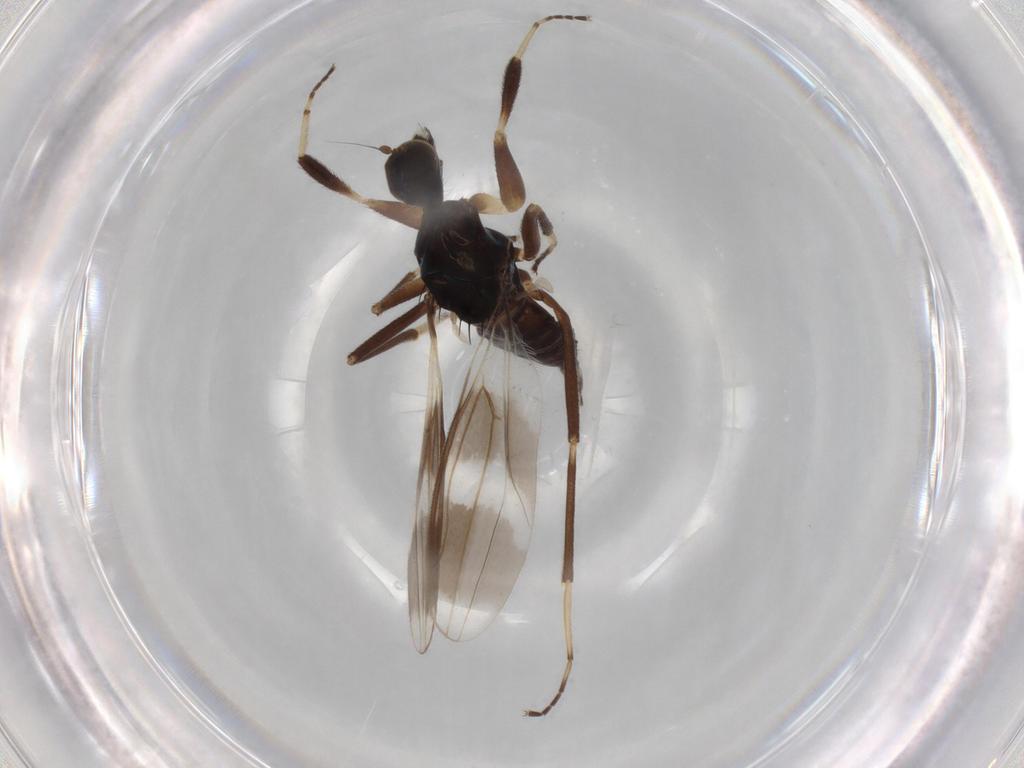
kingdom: Animalia
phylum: Arthropoda
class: Insecta
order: Diptera
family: Hybotidae
